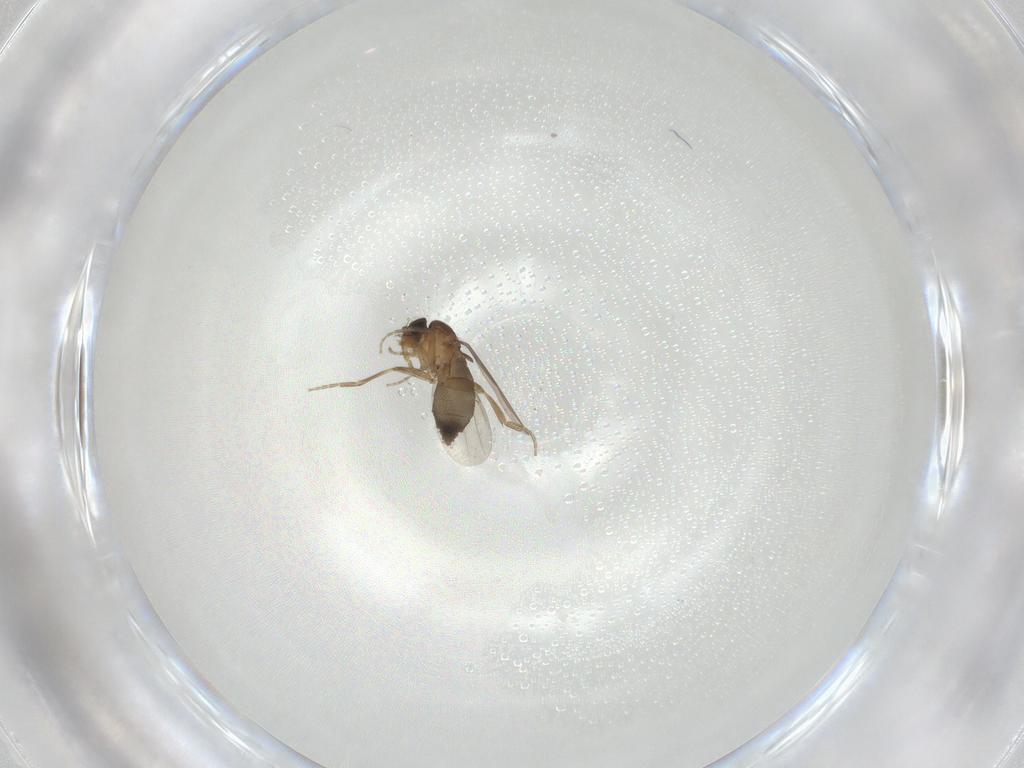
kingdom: Animalia
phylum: Arthropoda
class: Insecta
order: Diptera
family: Phoridae
